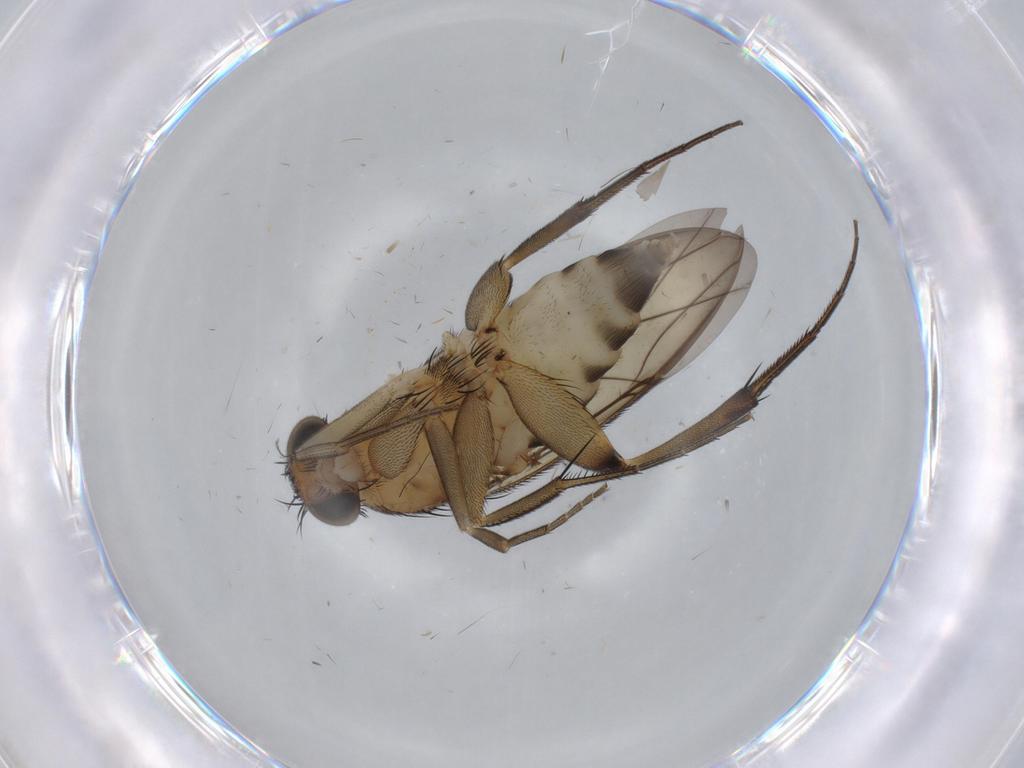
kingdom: Animalia
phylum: Arthropoda
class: Insecta
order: Diptera
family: Phoridae
